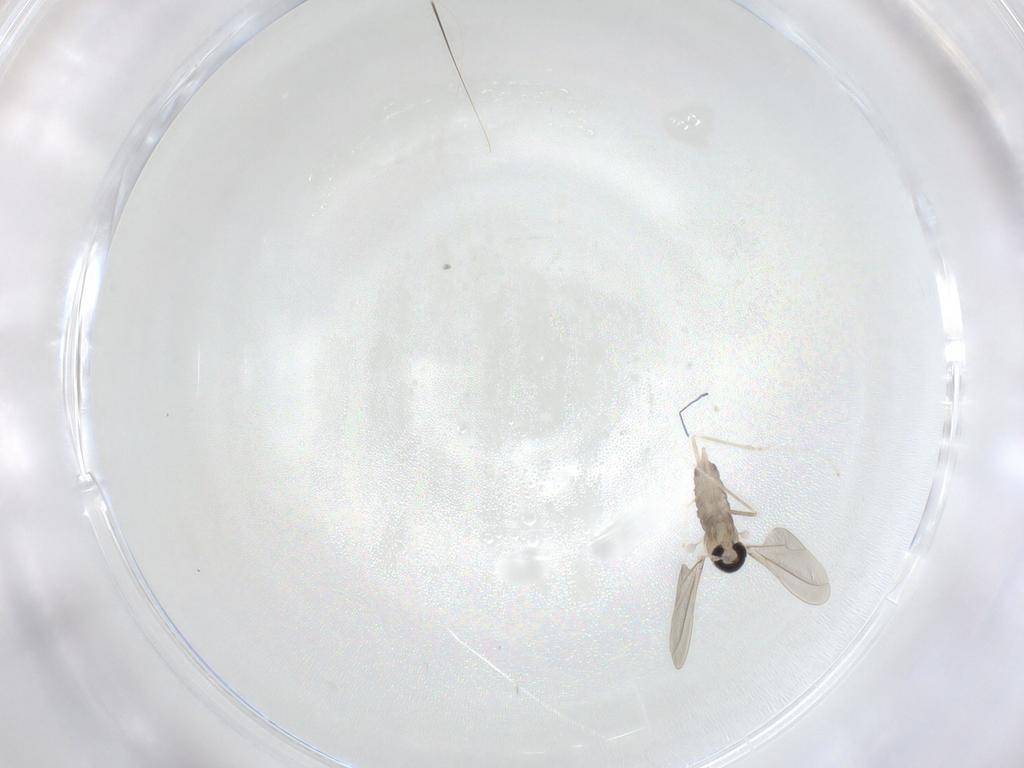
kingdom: Animalia
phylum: Arthropoda
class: Insecta
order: Diptera
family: Cecidomyiidae
